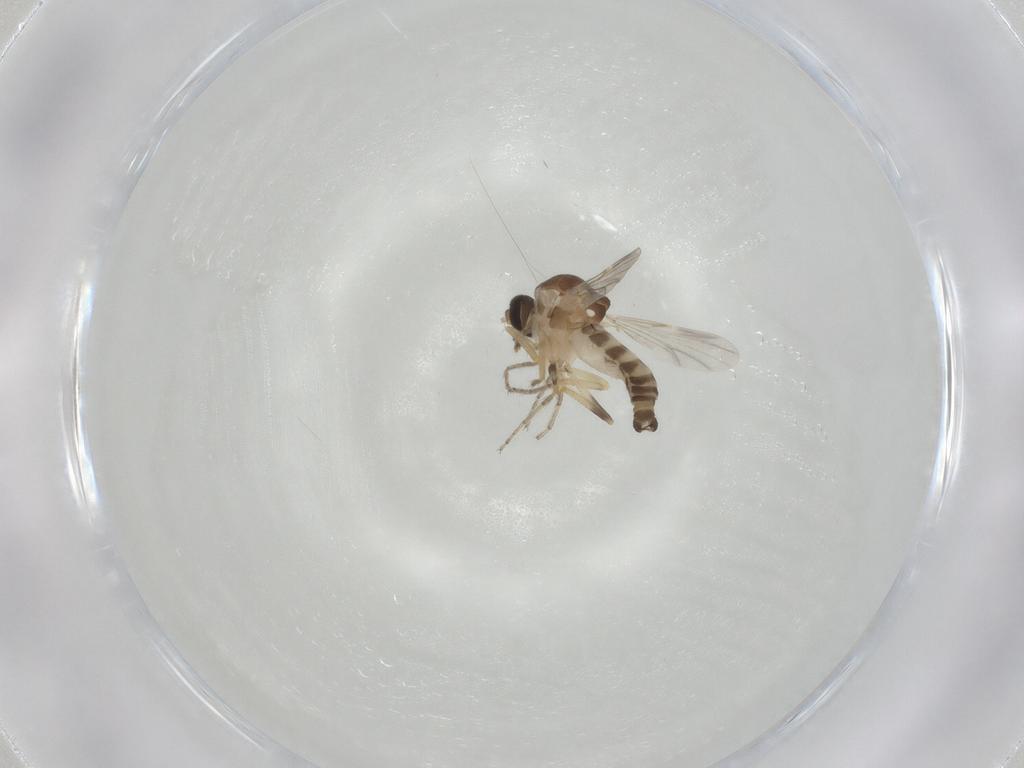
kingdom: Animalia
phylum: Arthropoda
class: Insecta
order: Diptera
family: Ceratopogonidae
